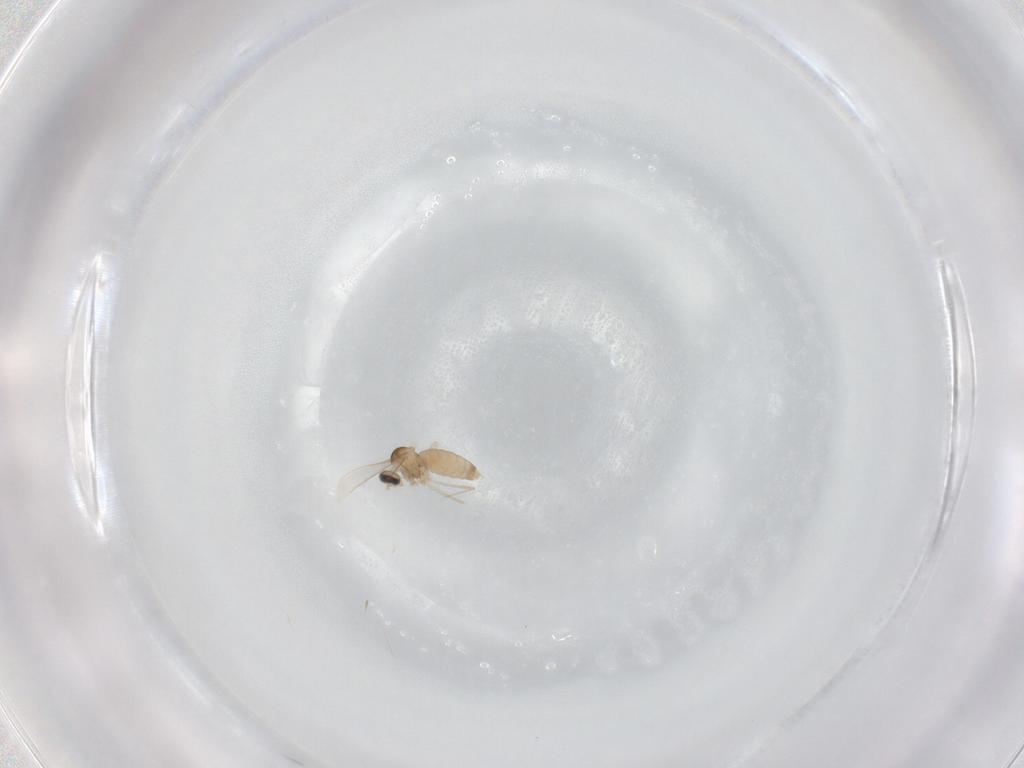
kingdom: Animalia
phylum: Arthropoda
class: Insecta
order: Diptera
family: Cecidomyiidae
